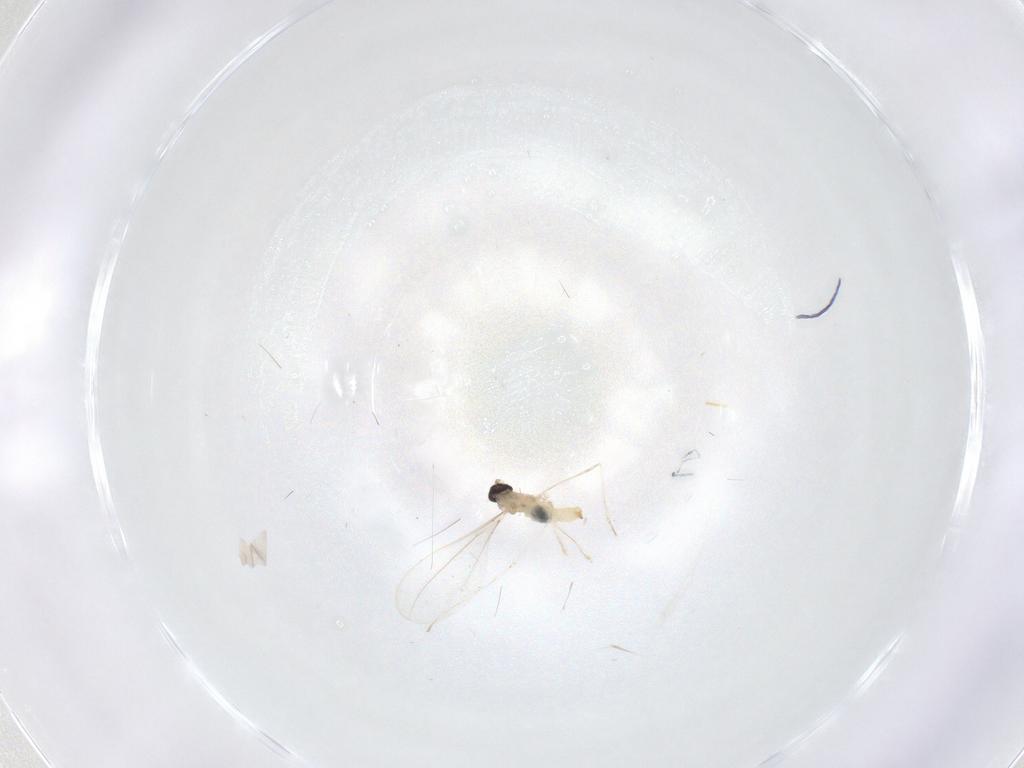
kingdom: Animalia
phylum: Arthropoda
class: Insecta
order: Diptera
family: Cecidomyiidae
